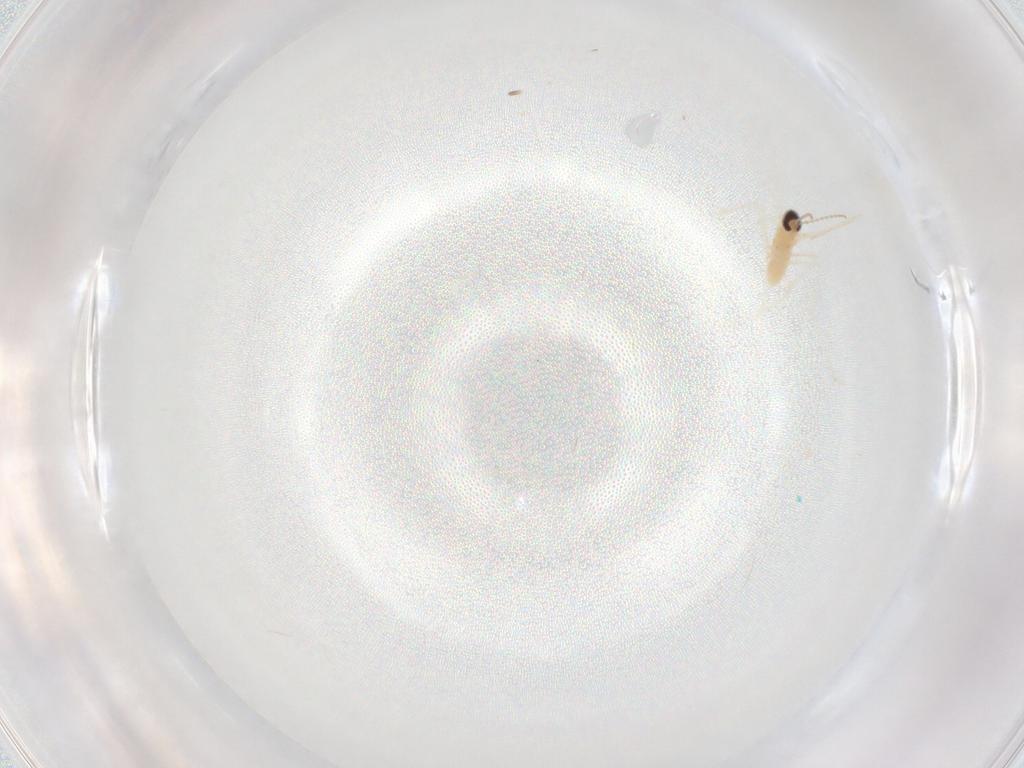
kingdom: Animalia
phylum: Arthropoda
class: Insecta
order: Diptera
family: Cecidomyiidae
